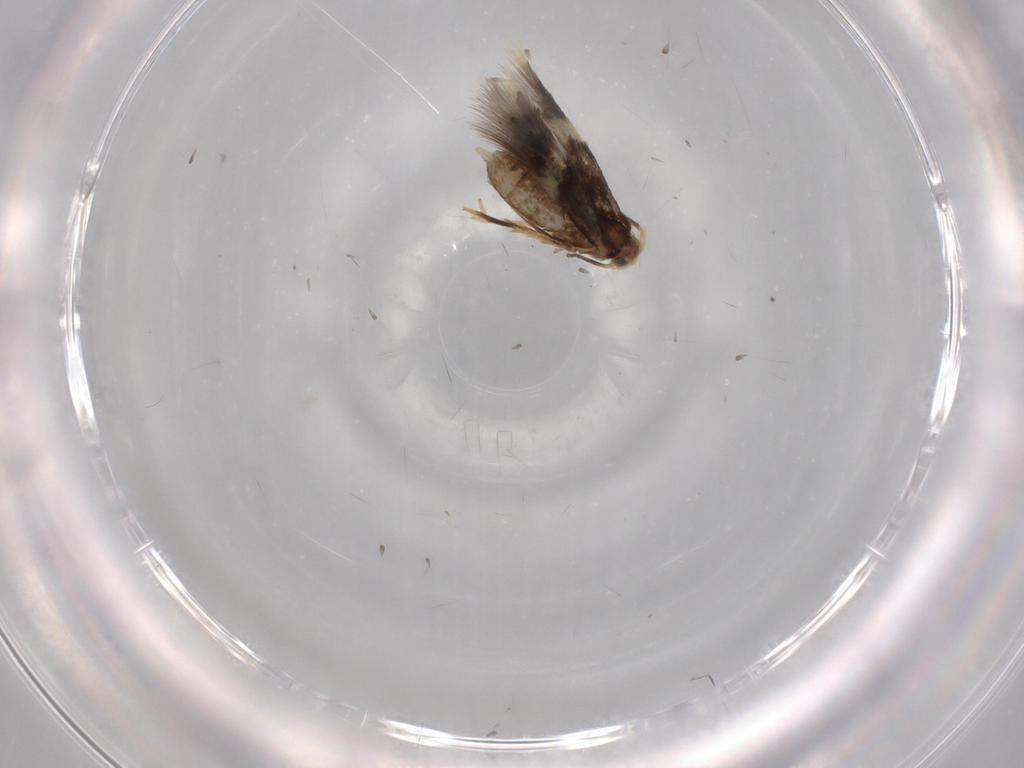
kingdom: Animalia
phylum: Arthropoda
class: Insecta
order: Lepidoptera
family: Nepticulidae
